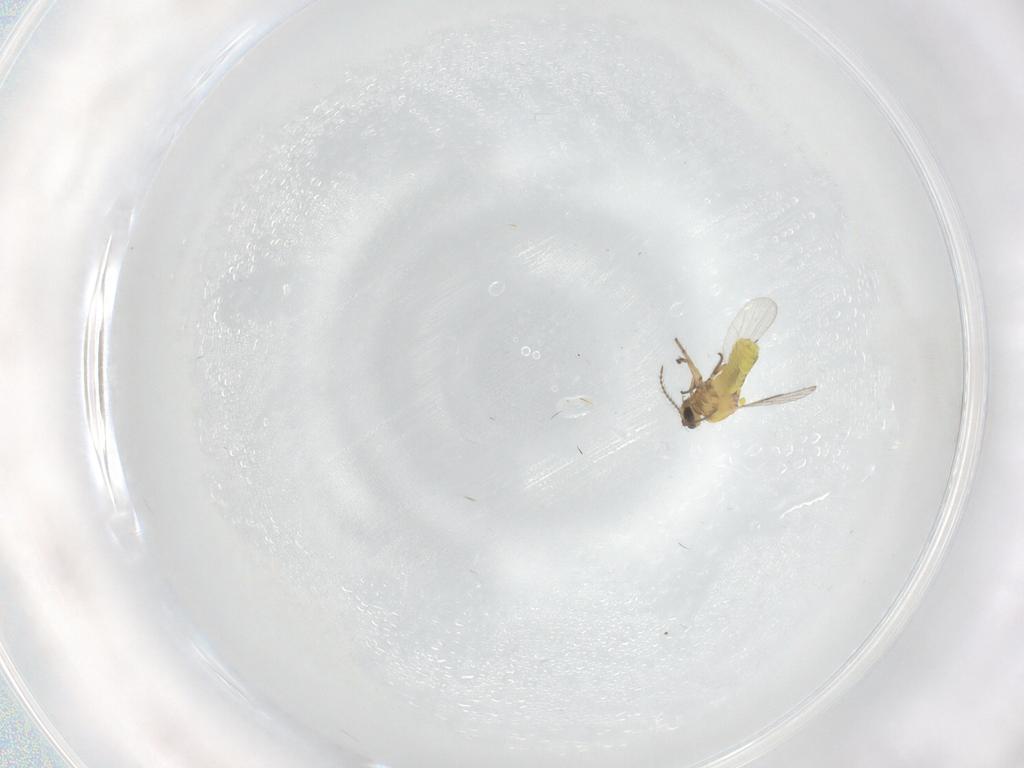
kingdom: Animalia
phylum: Arthropoda
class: Insecta
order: Diptera
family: Ceratopogonidae
